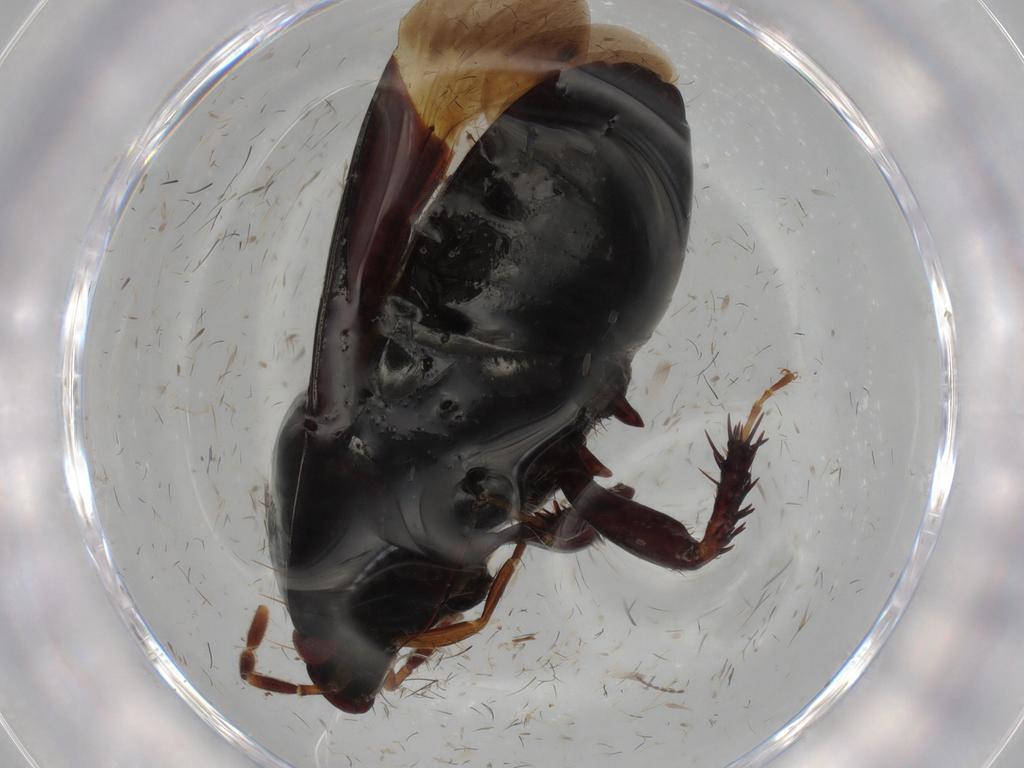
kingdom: Animalia
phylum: Arthropoda
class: Insecta
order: Hemiptera
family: Cydnidae
